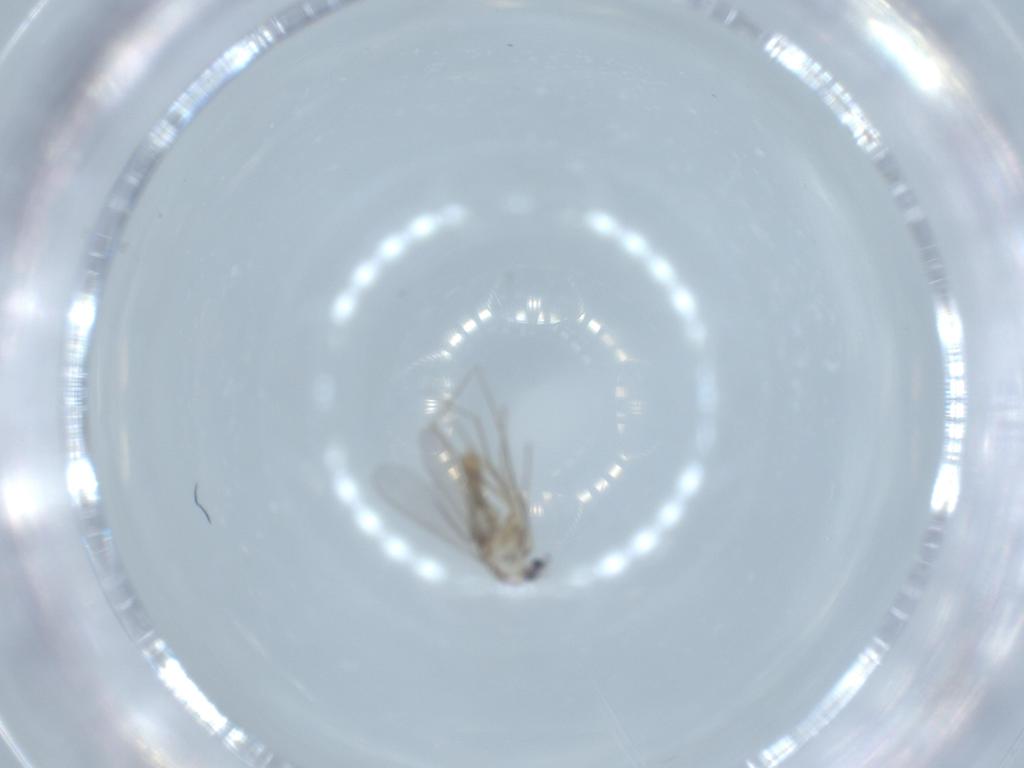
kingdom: Animalia
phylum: Arthropoda
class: Insecta
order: Diptera
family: Chironomidae
